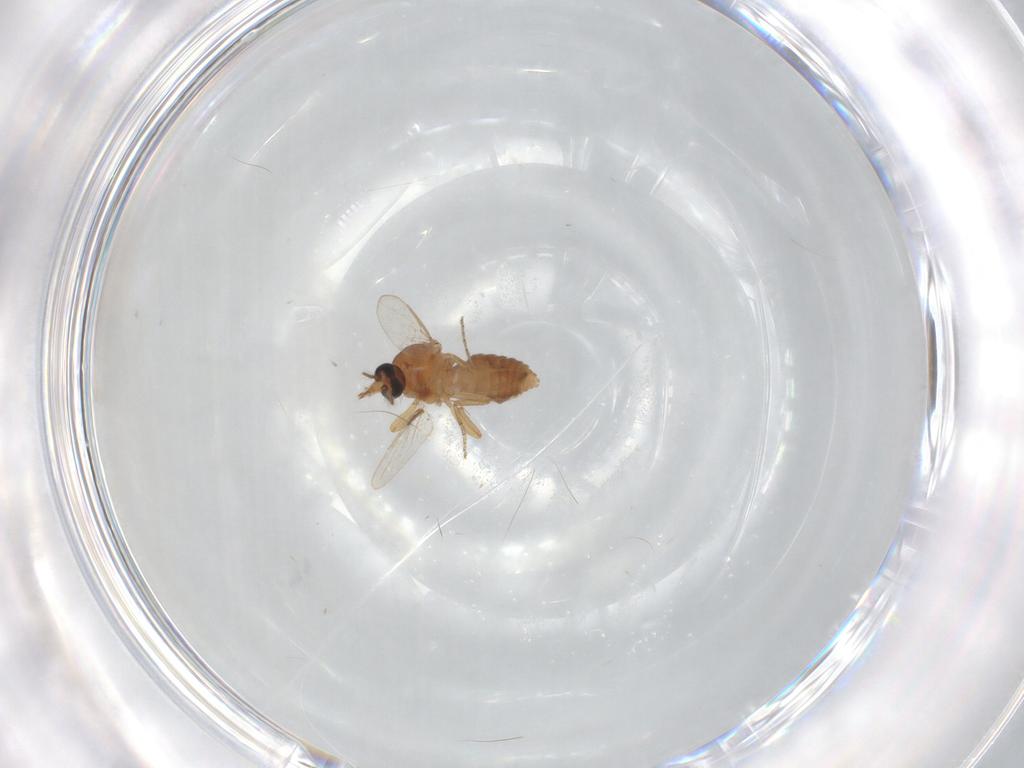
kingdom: Animalia
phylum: Arthropoda
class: Insecta
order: Diptera
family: Ceratopogonidae
